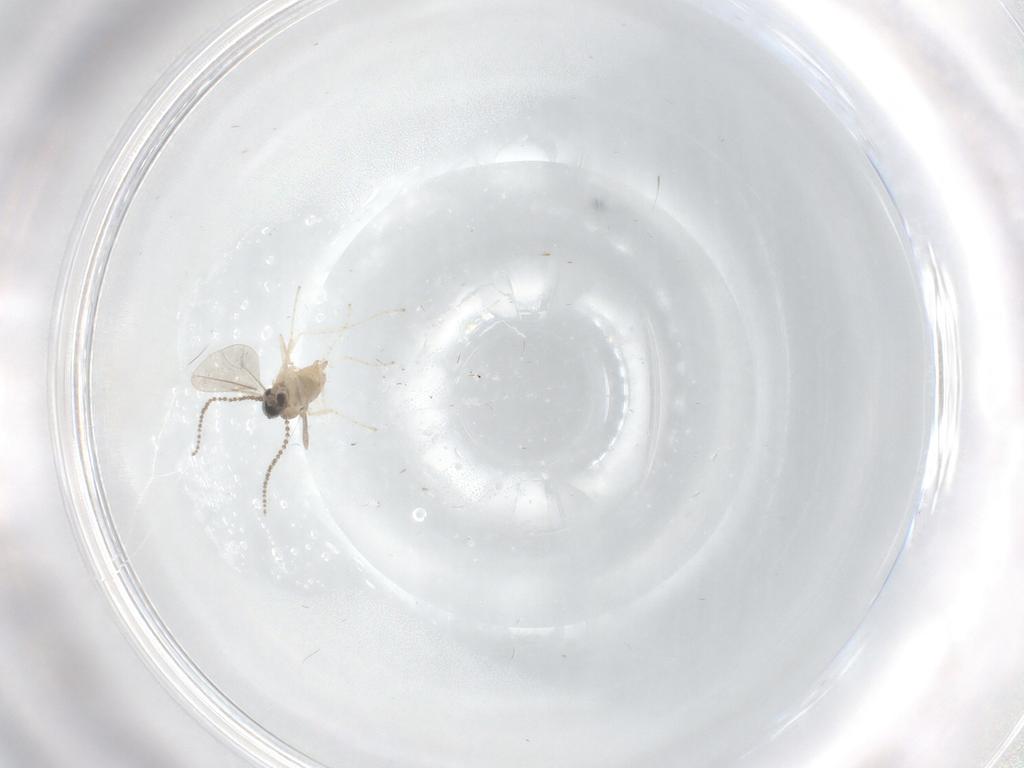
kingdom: Animalia
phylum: Arthropoda
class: Insecta
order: Diptera
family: Cecidomyiidae
